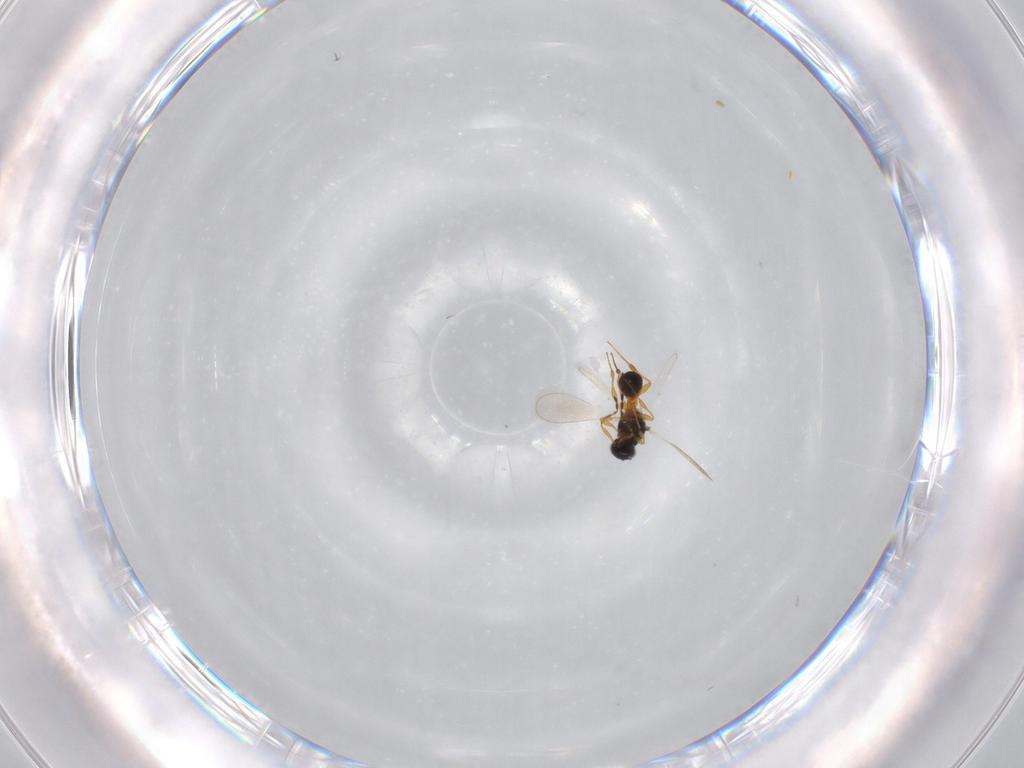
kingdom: Animalia
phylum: Arthropoda
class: Insecta
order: Hymenoptera
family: Platygastridae
